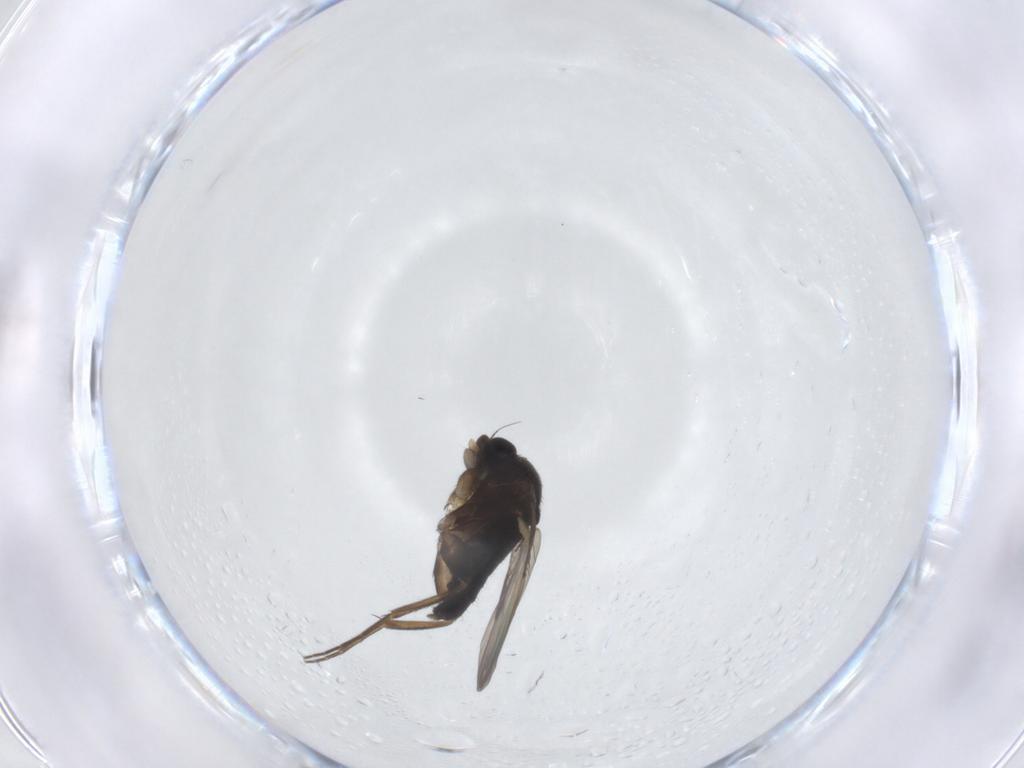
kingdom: Animalia
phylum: Arthropoda
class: Insecta
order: Diptera
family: Phoridae
